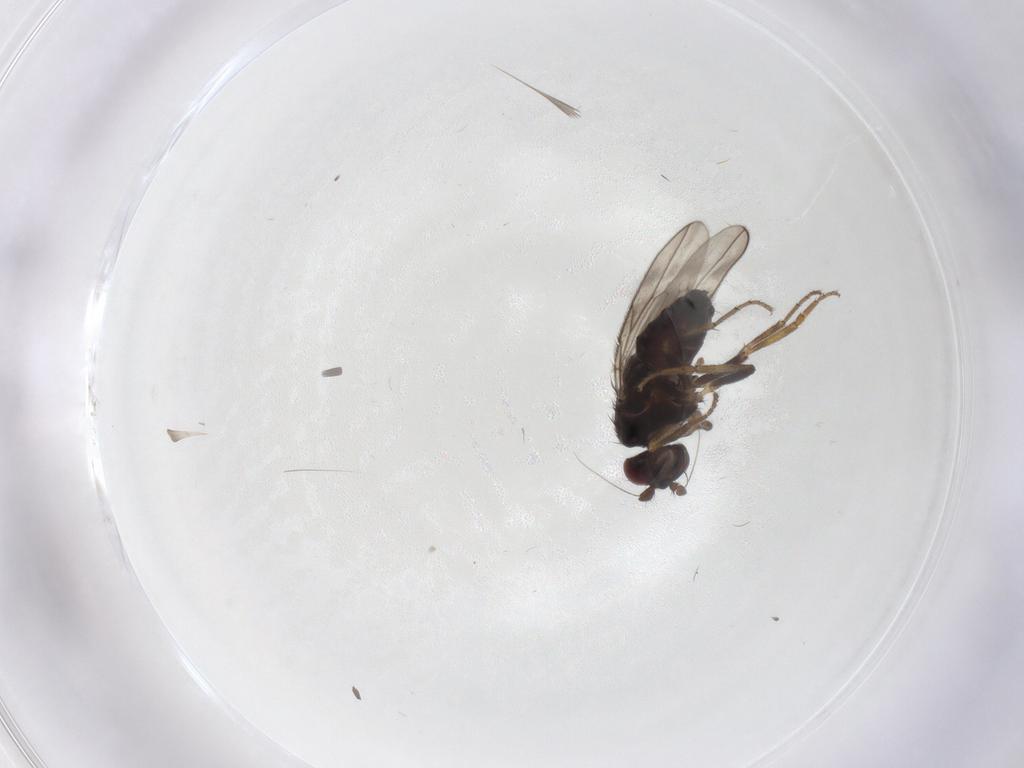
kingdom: Animalia
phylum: Arthropoda
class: Insecta
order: Diptera
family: Sphaeroceridae
